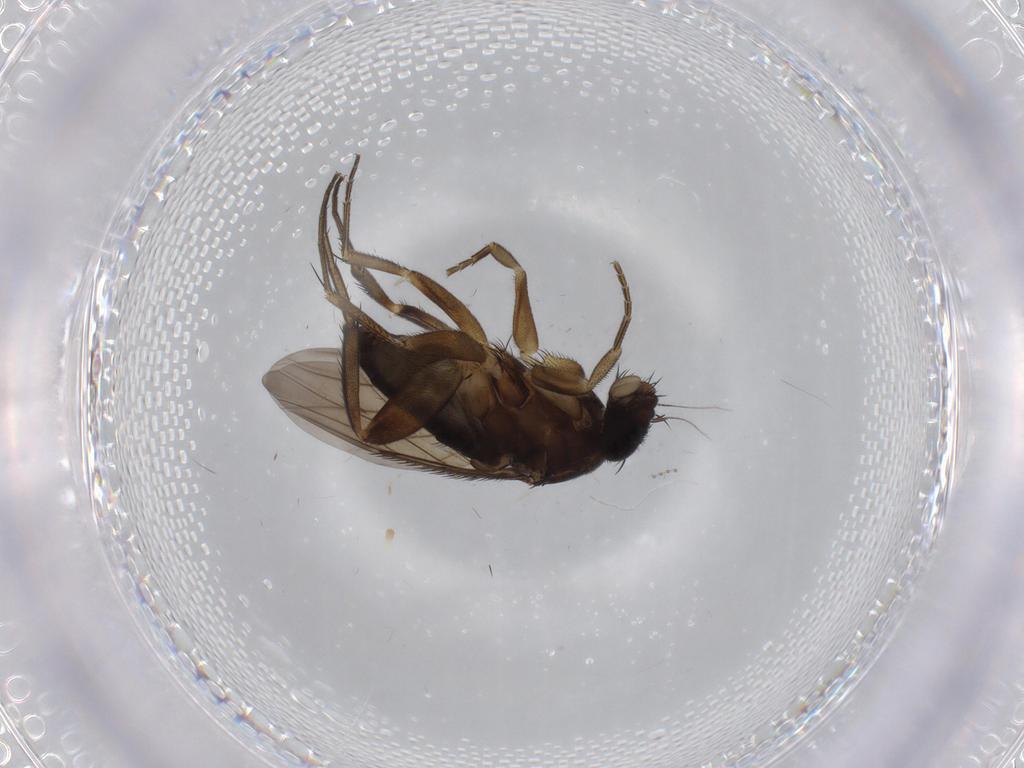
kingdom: Animalia
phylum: Arthropoda
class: Insecta
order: Diptera
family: Phoridae
